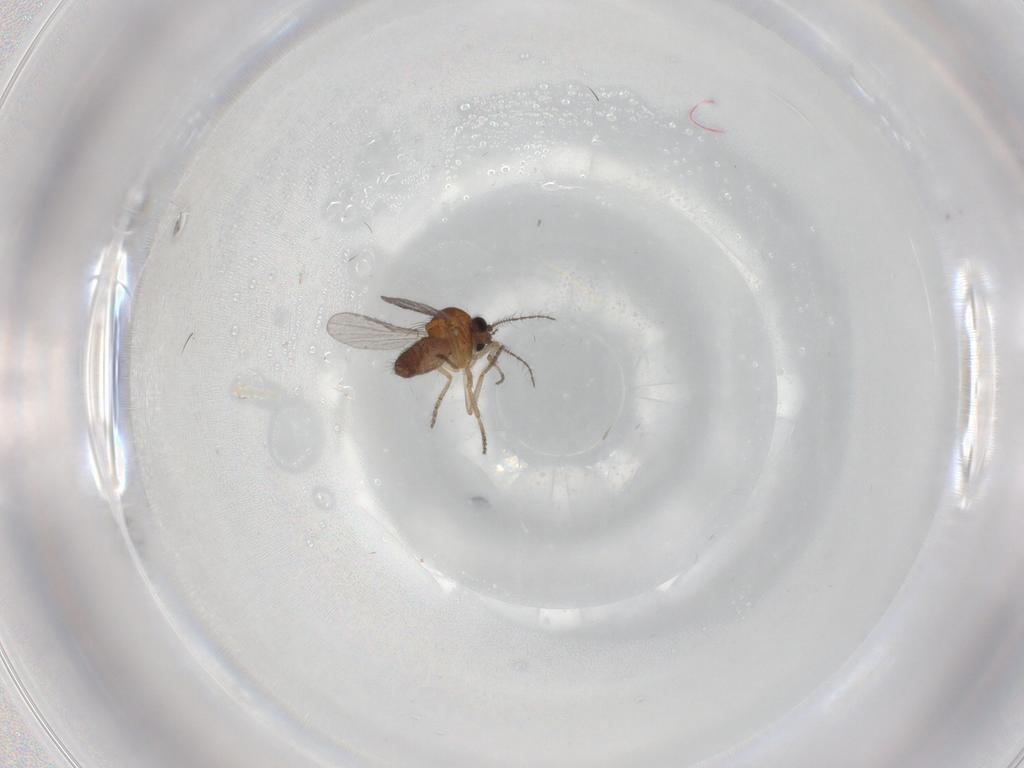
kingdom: Animalia
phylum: Arthropoda
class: Insecta
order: Diptera
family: Ceratopogonidae
